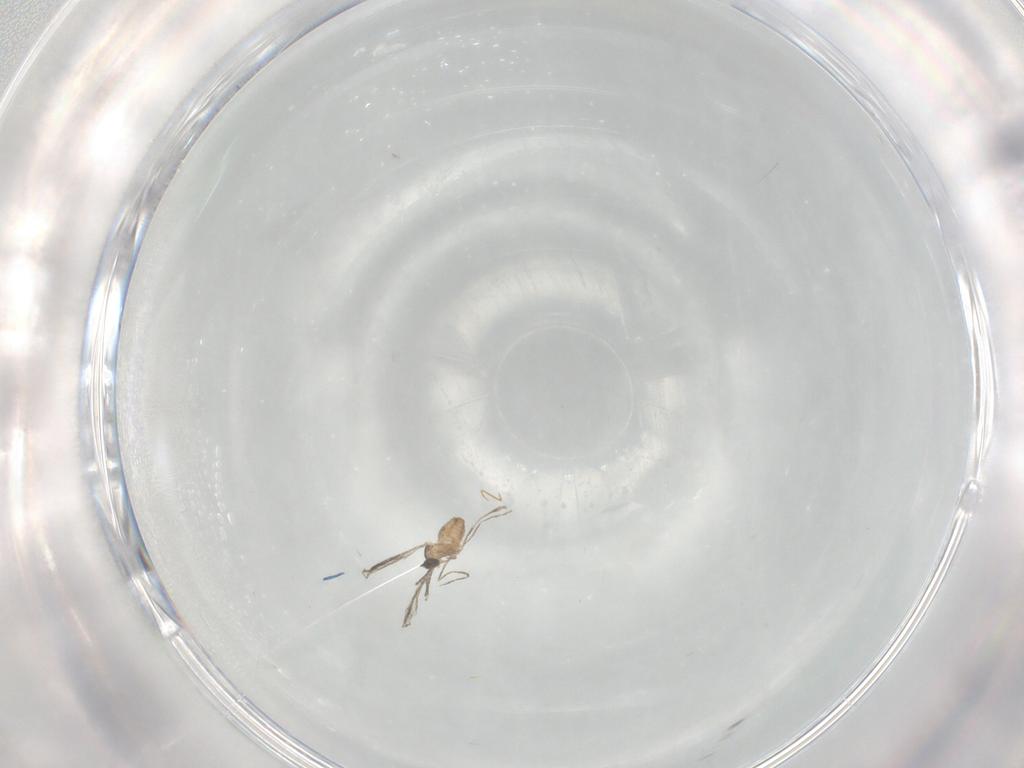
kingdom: Animalia
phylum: Arthropoda
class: Insecta
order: Diptera
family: Cecidomyiidae
